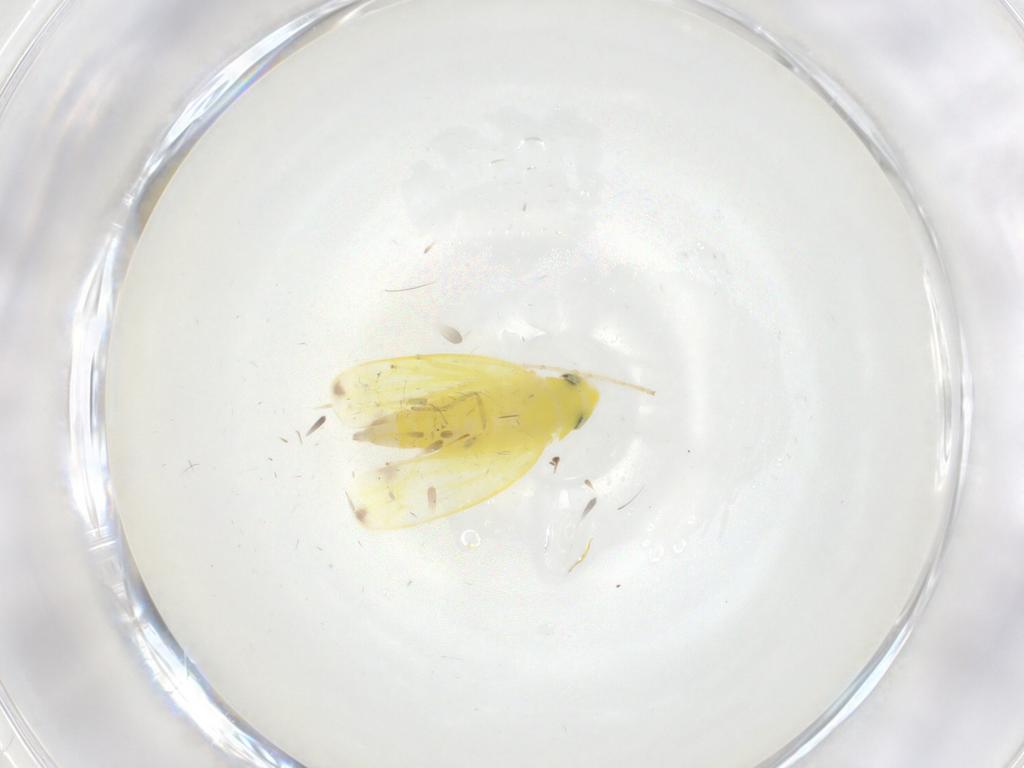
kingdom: Animalia
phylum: Arthropoda
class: Insecta
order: Hemiptera
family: Cicadellidae
